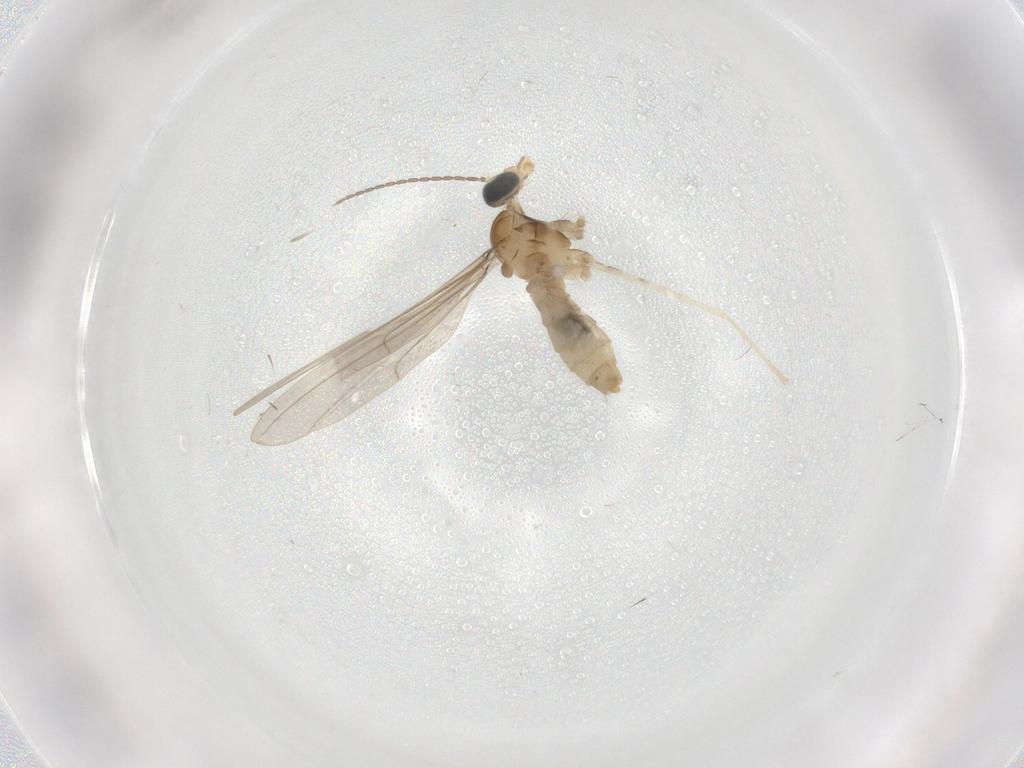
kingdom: Animalia
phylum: Arthropoda
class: Insecta
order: Diptera
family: Cecidomyiidae
